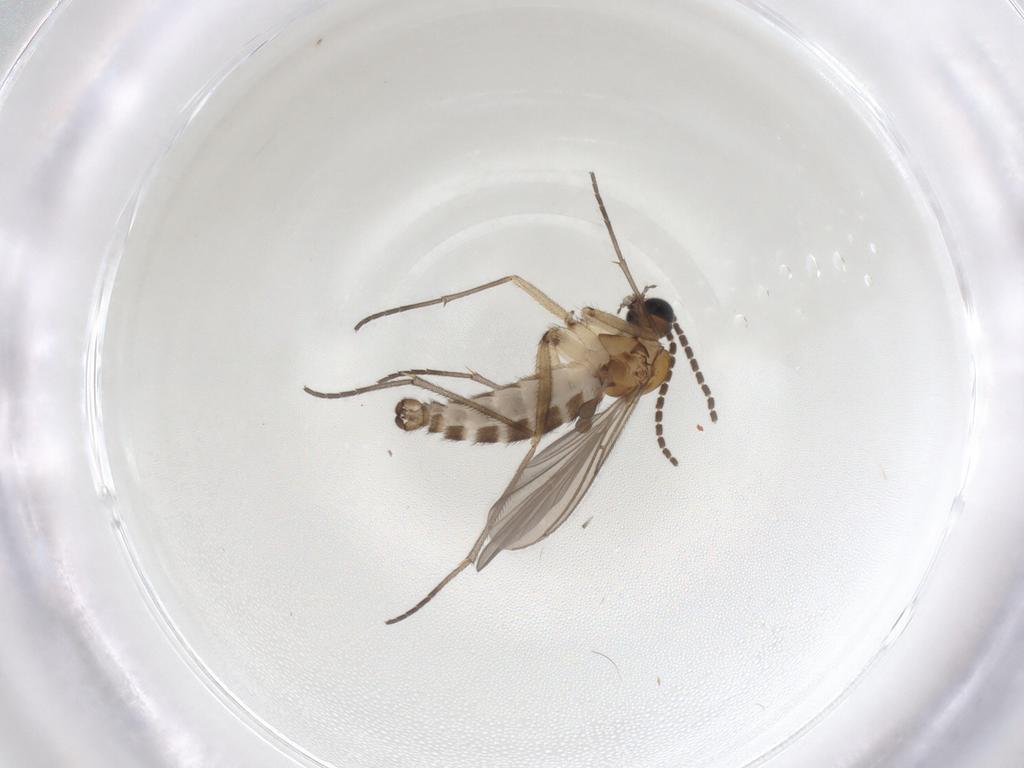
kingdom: Animalia
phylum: Arthropoda
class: Insecta
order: Diptera
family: Sciaridae
